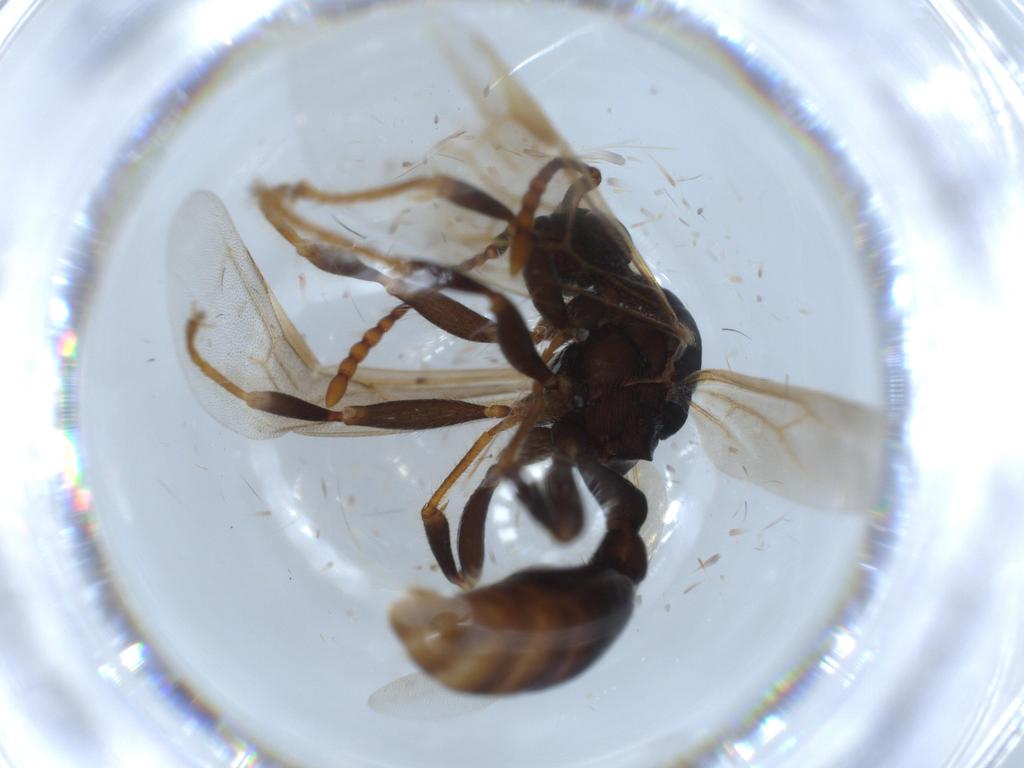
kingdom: Animalia
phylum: Arthropoda
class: Insecta
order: Hymenoptera
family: Formicidae
